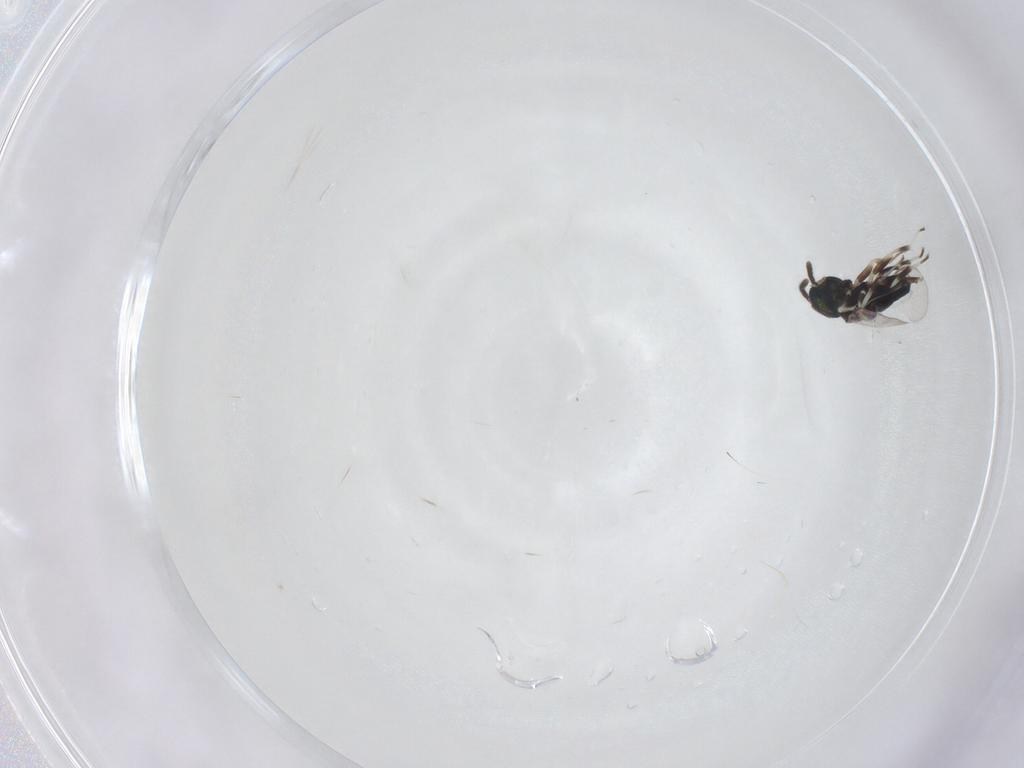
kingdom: Animalia
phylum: Arthropoda
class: Insecta
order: Hymenoptera
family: Eupelmidae
